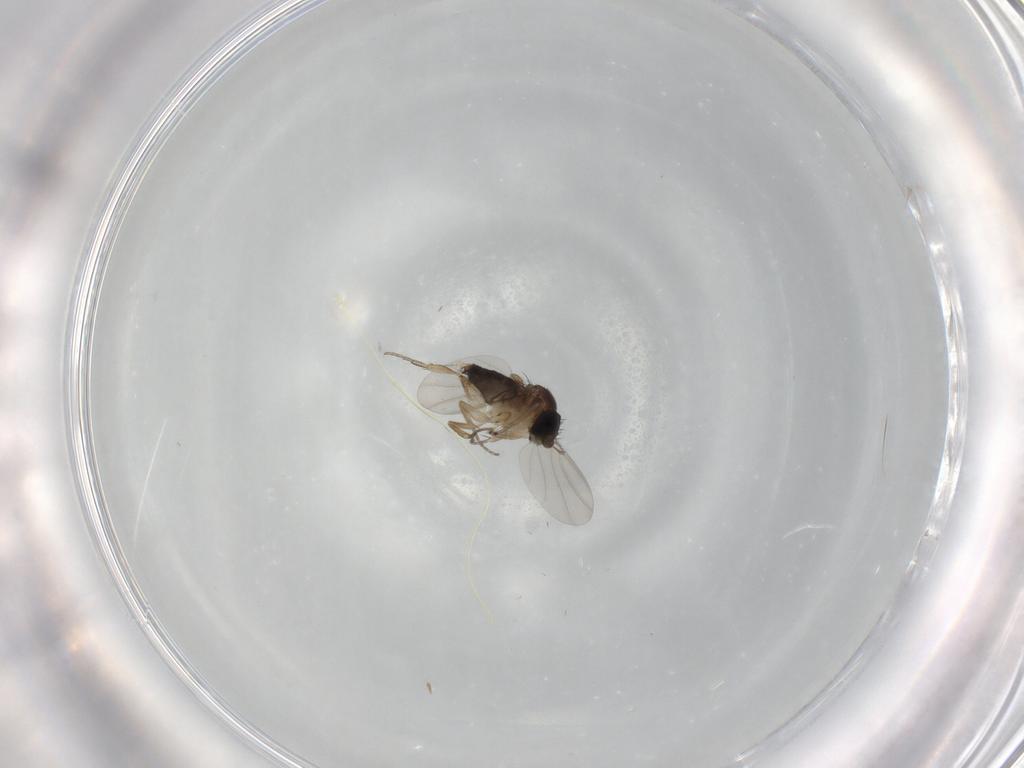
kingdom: Animalia
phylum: Arthropoda
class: Insecta
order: Diptera
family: Phoridae
